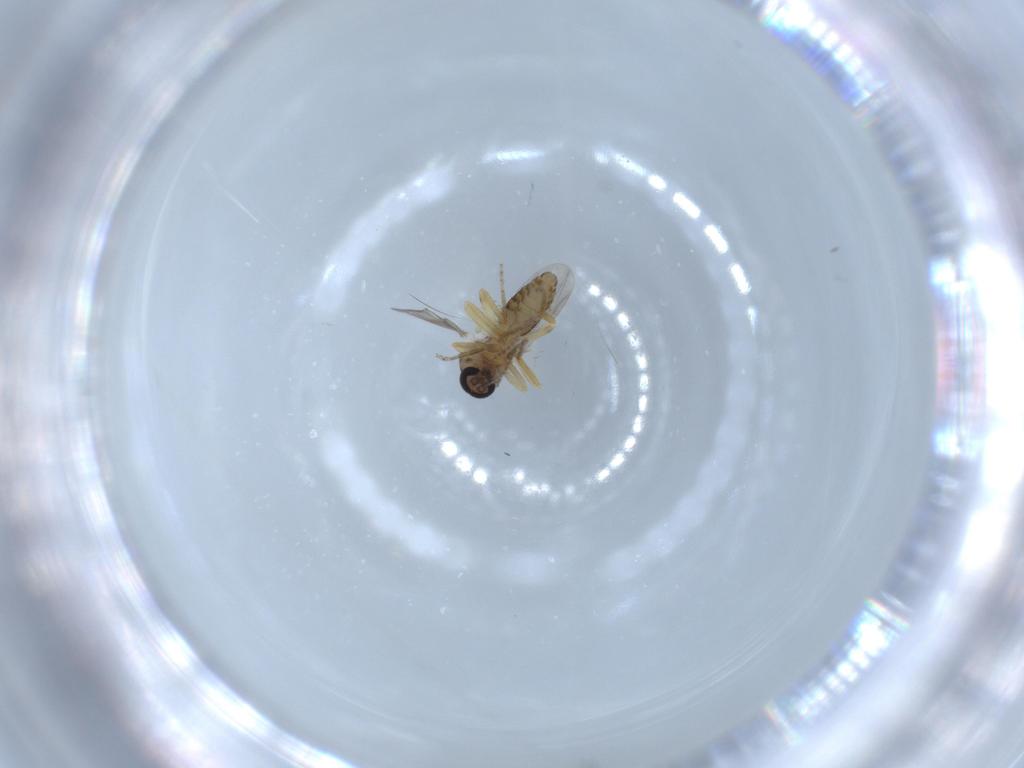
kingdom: Animalia
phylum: Arthropoda
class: Insecta
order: Diptera
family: Ceratopogonidae
